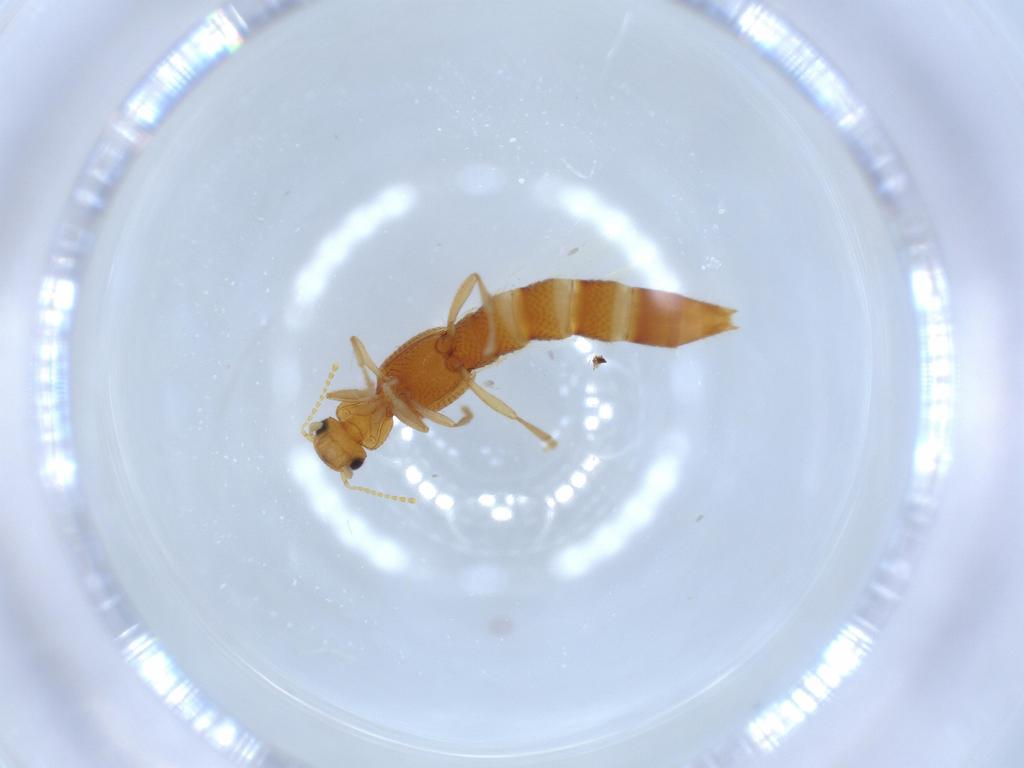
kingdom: Animalia
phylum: Arthropoda
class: Insecta
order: Coleoptera
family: Staphylinidae
